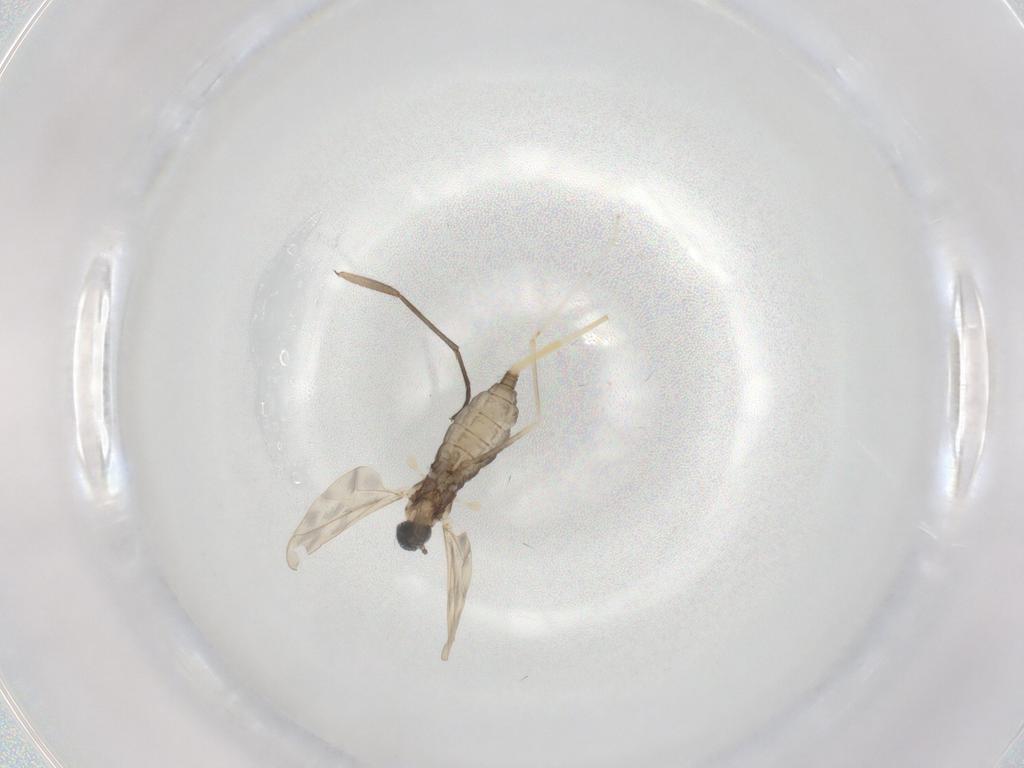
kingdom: Animalia
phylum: Arthropoda
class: Insecta
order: Diptera
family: Cecidomyiidae
